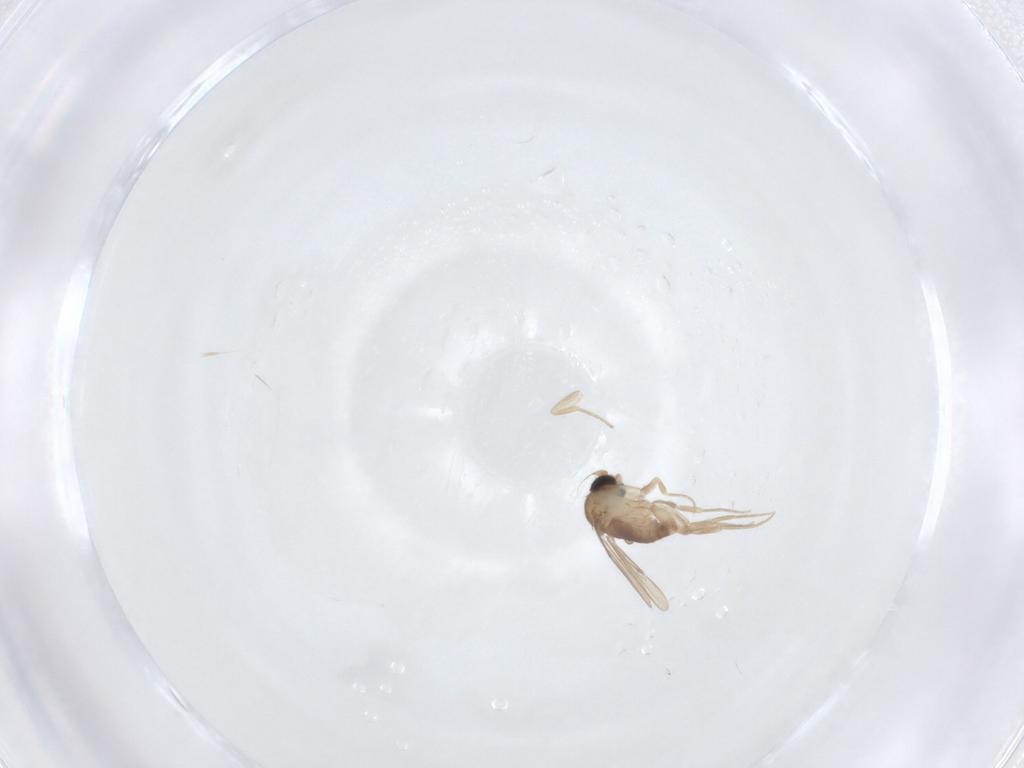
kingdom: Animalia
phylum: Arthropoda
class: Insecta
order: Diptera
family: Phoridae
